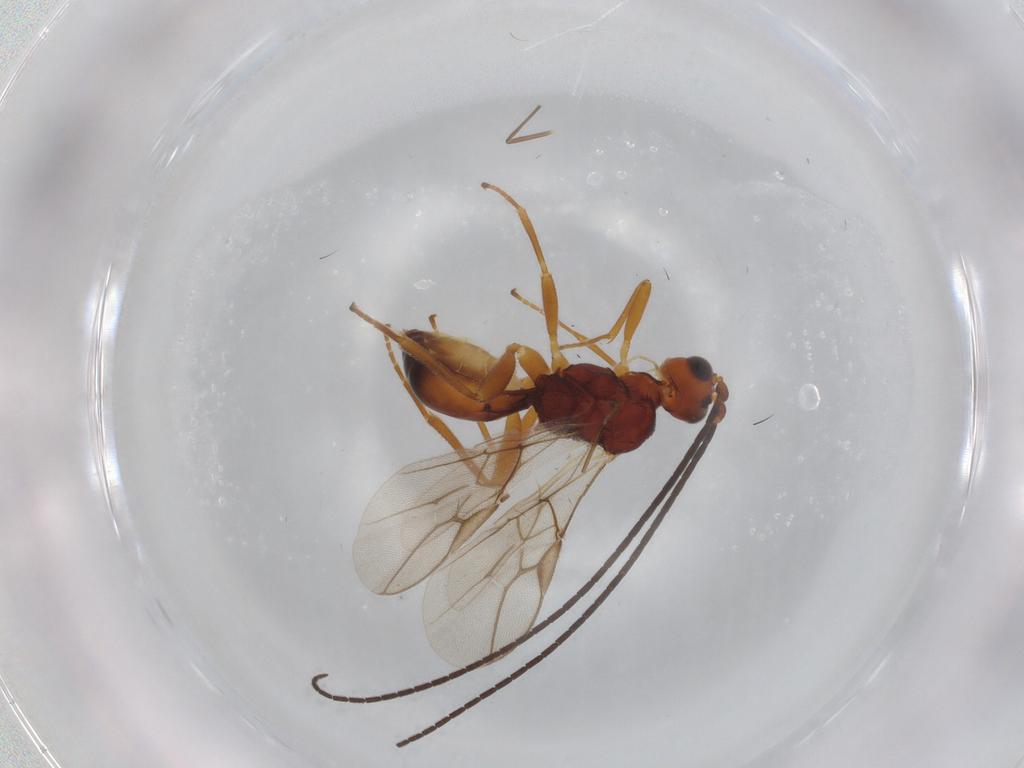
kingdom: Animalia
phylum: Arthropoda
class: Insecta
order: Hymenoptera
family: Braconidae
